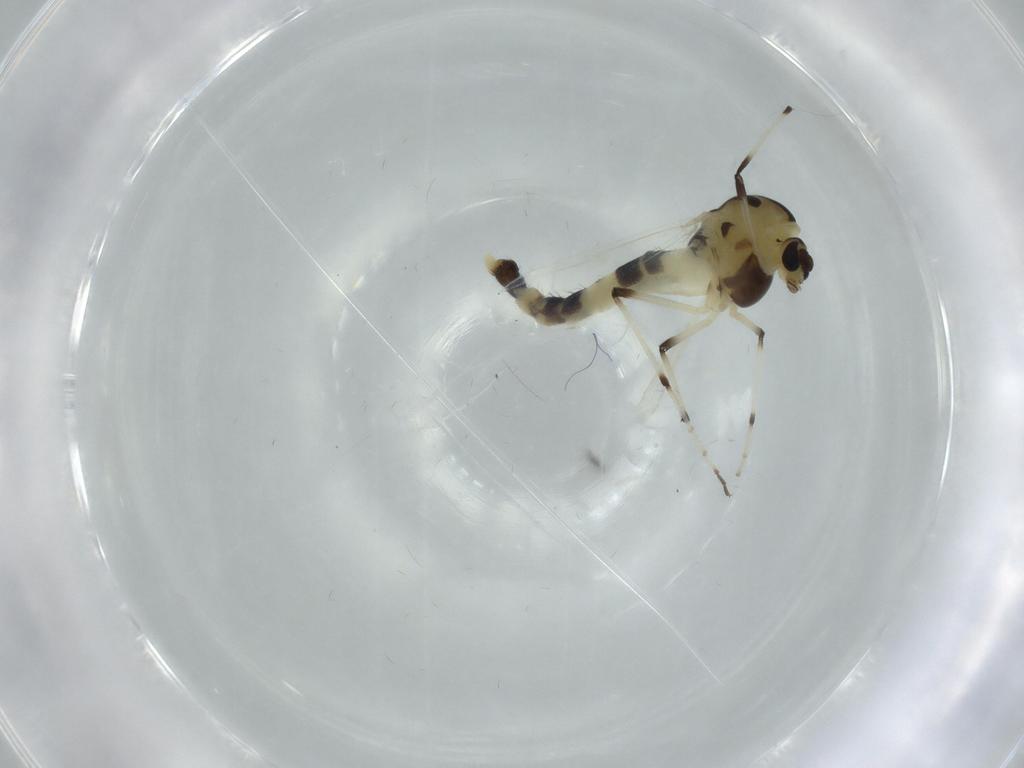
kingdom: Animalia
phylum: Arthropoda
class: Insecta
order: Diptera
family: Chironomidae
